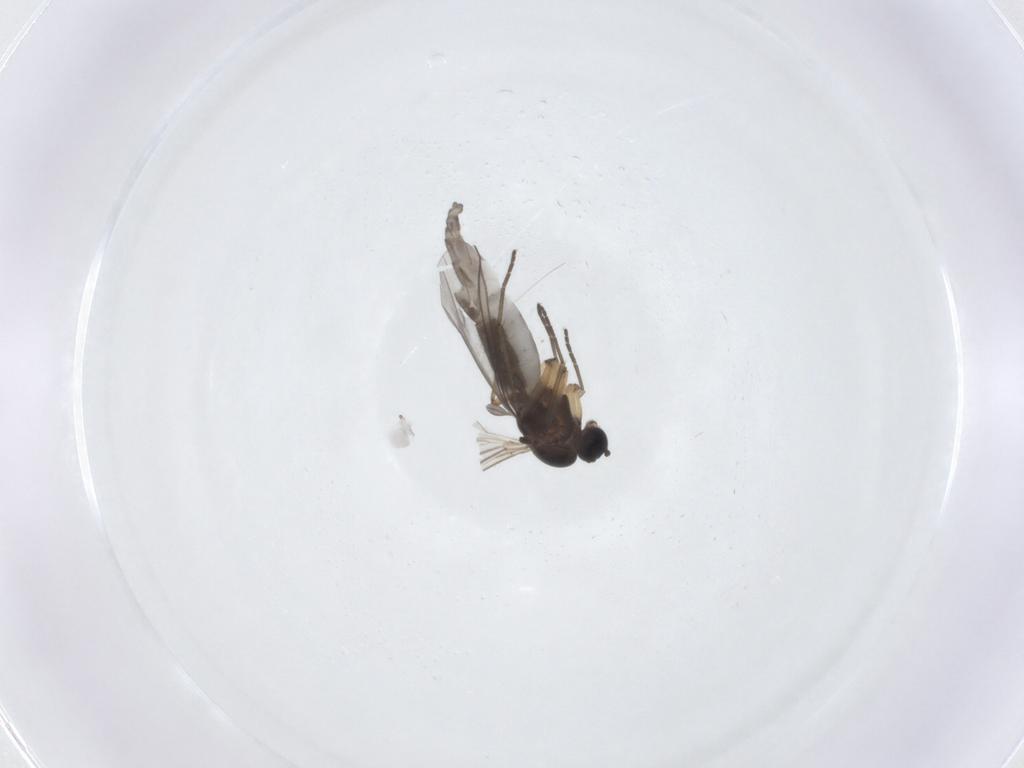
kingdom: Animalia
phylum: Arthropoda
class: Insecta
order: Diptera
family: Sciaridae
